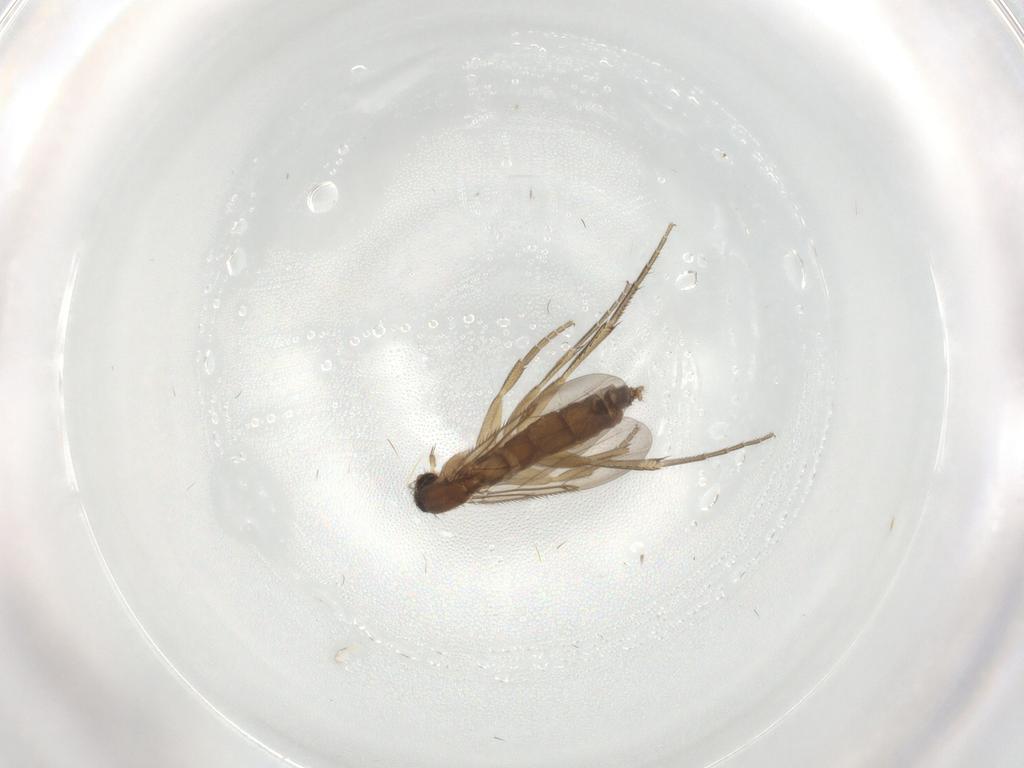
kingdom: Animalia
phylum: Arthropoda
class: Insecta
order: Diptera
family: Phoridae
